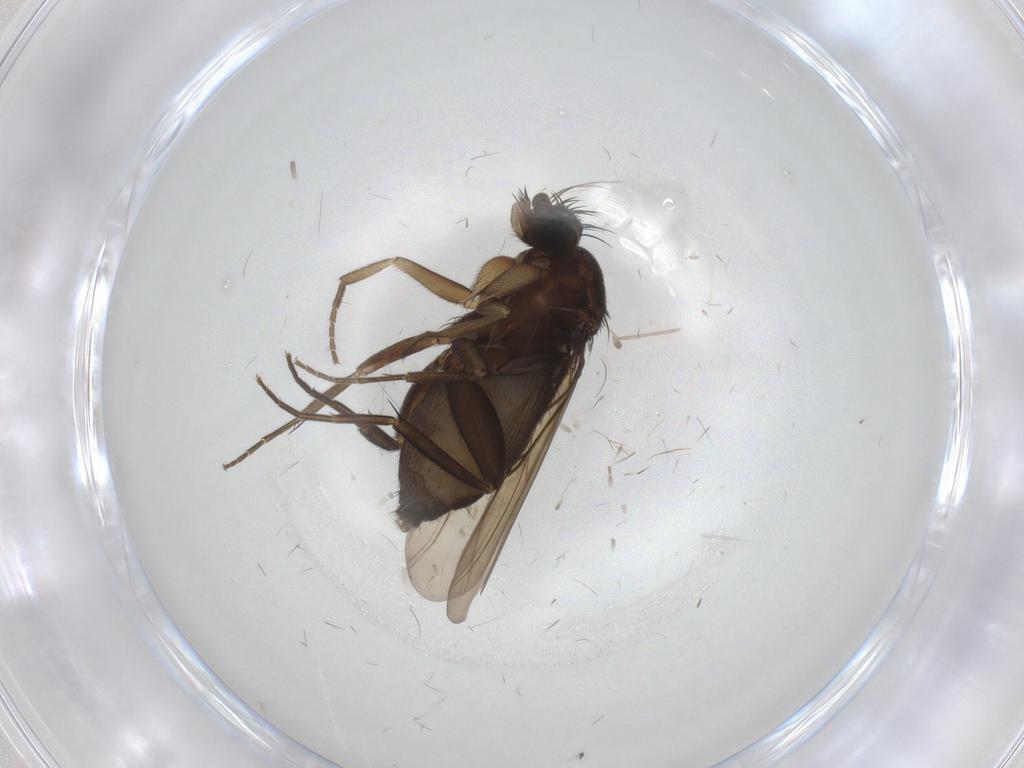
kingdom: Animalia
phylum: Arthropoda
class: Insecta
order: Diptera
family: Phoridae
